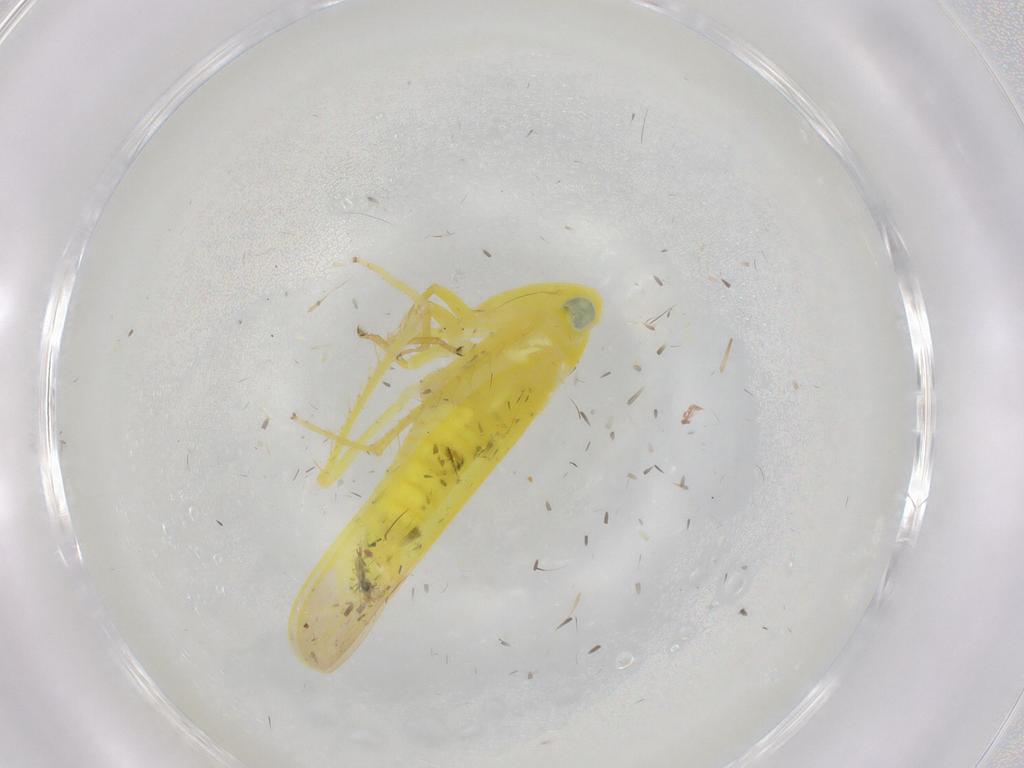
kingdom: Animalia
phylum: Arthropoda
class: Insecta
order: Hemiptera
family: Cicadellidae
